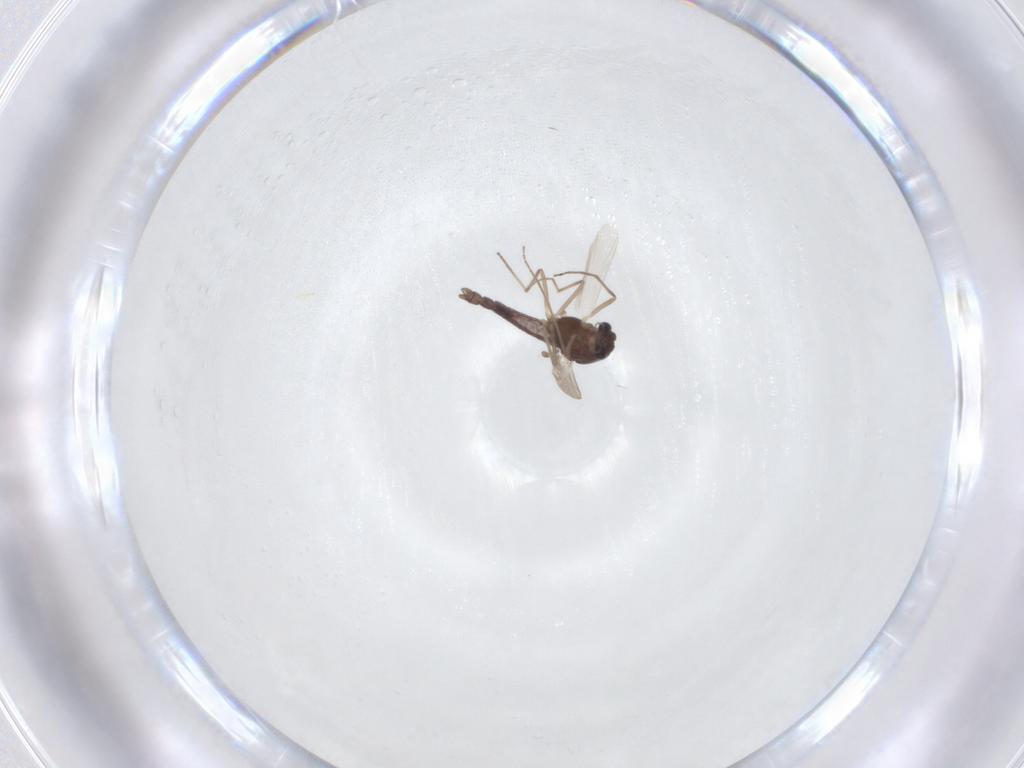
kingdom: Animalia
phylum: Arthropoda
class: Insecta
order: Diptera
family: Chironomidae
